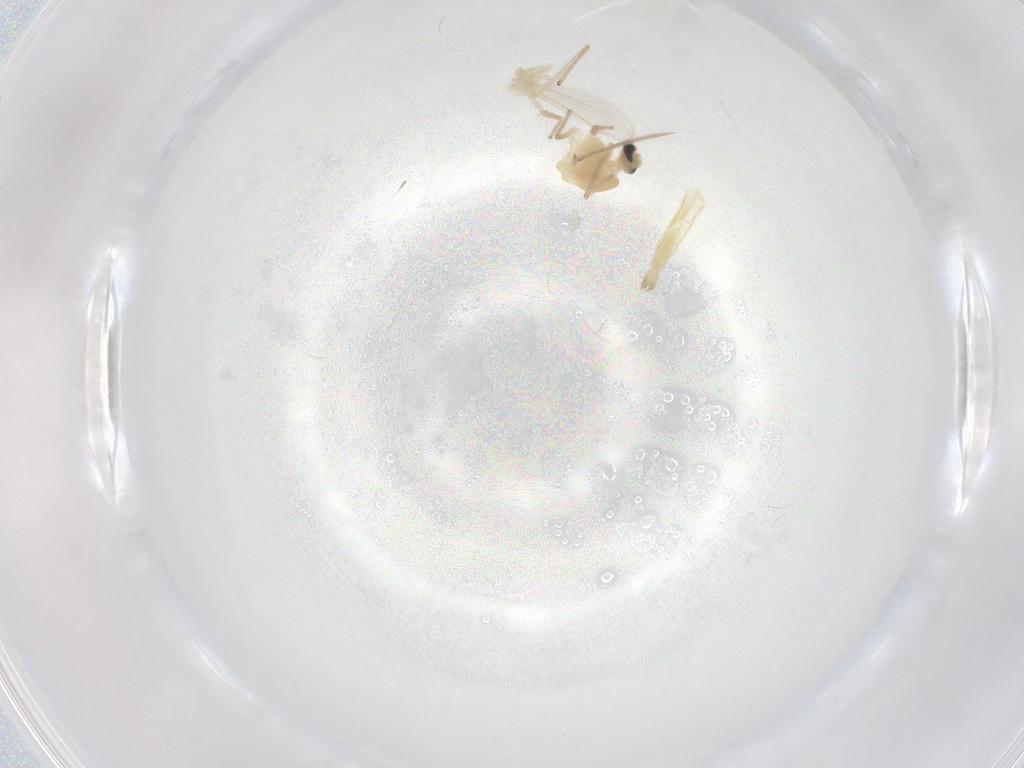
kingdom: Animalia
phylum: Arthropoda
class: Insecta
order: Diptera
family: Chironomidae
